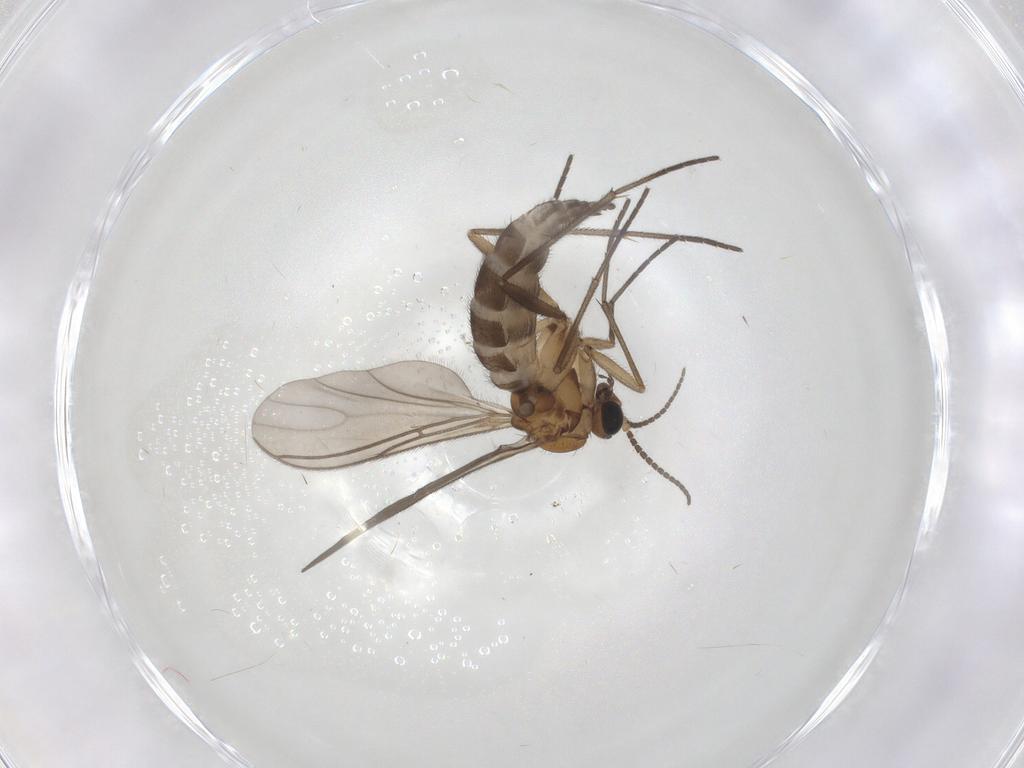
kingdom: Animalia
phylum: Arthropoda
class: Insecta
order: Diptera
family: Sciaridae
